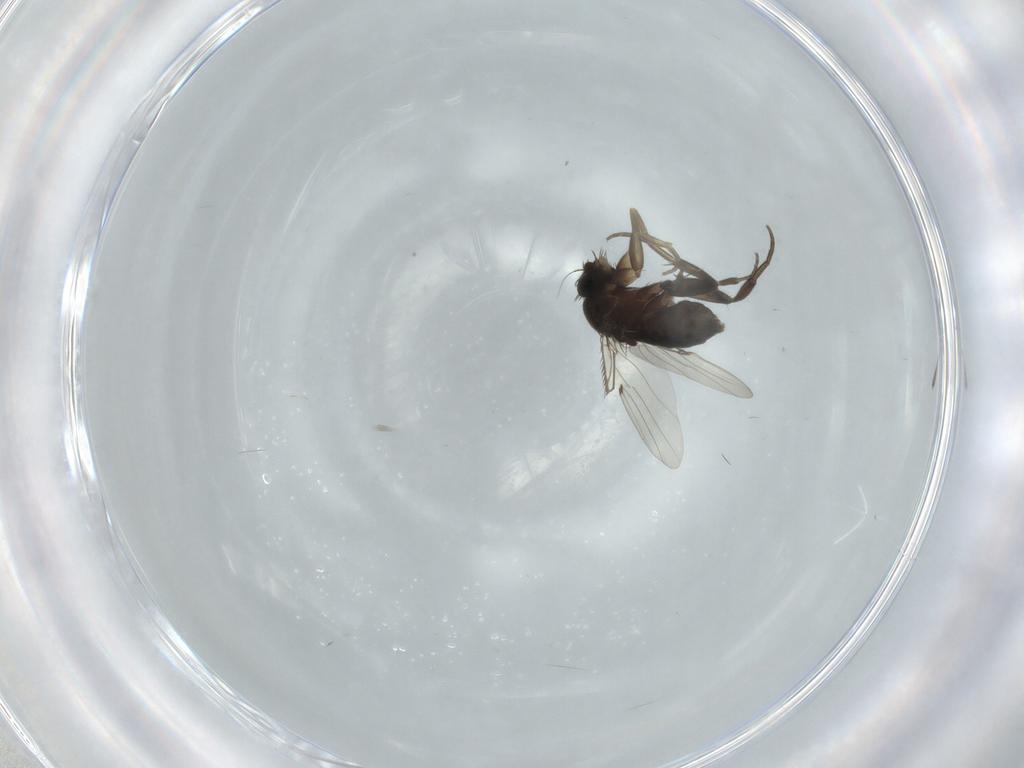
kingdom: Animalia
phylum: Arthropoda
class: Insecta
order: Diptera
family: Phoridae
